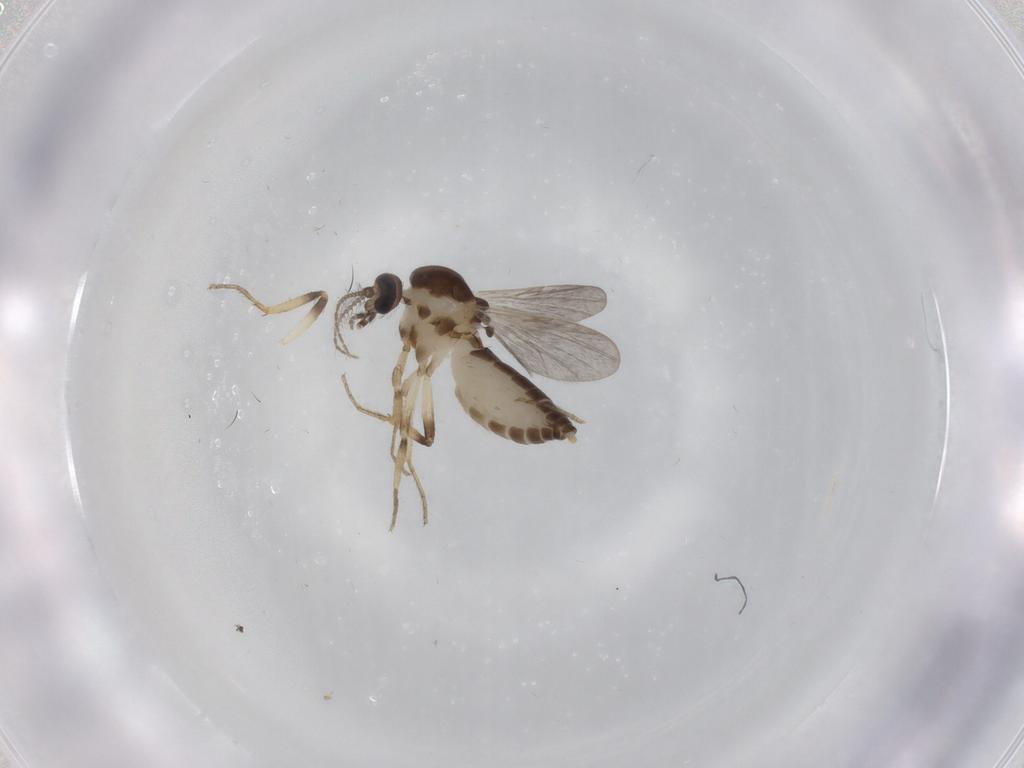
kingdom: Animalia
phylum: Arthropoda
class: Insecta
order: Diptera
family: Ceratopogonidae
